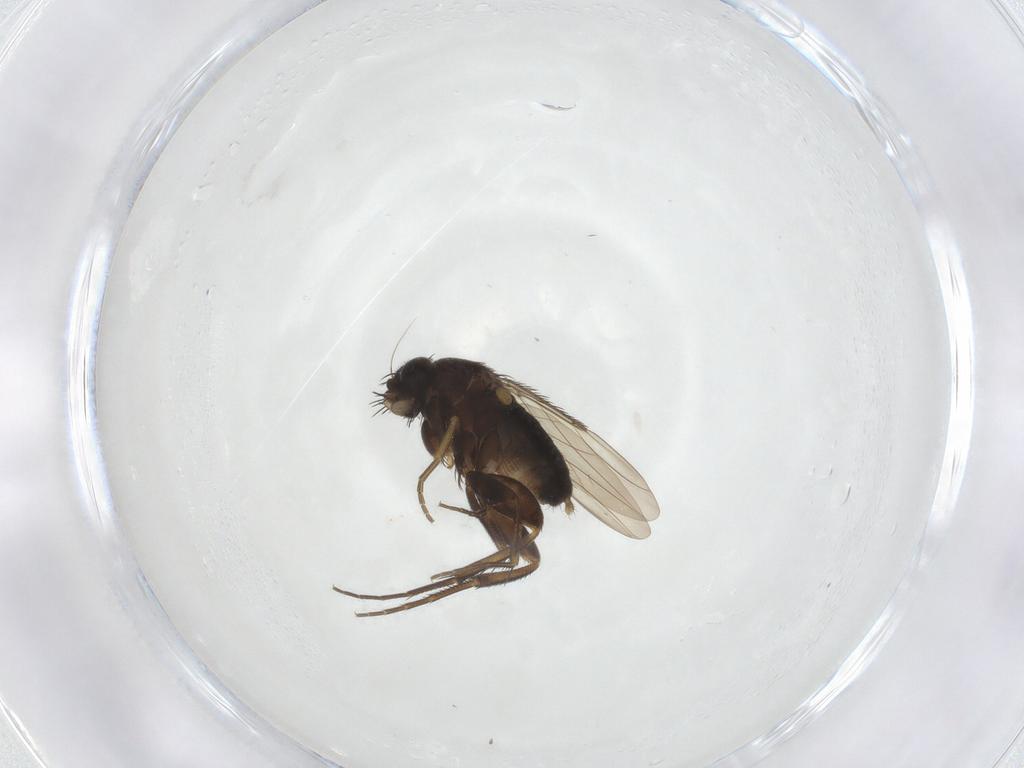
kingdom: Animalia
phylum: Arthropoda
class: Insecta
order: Diptera
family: Phoridae
